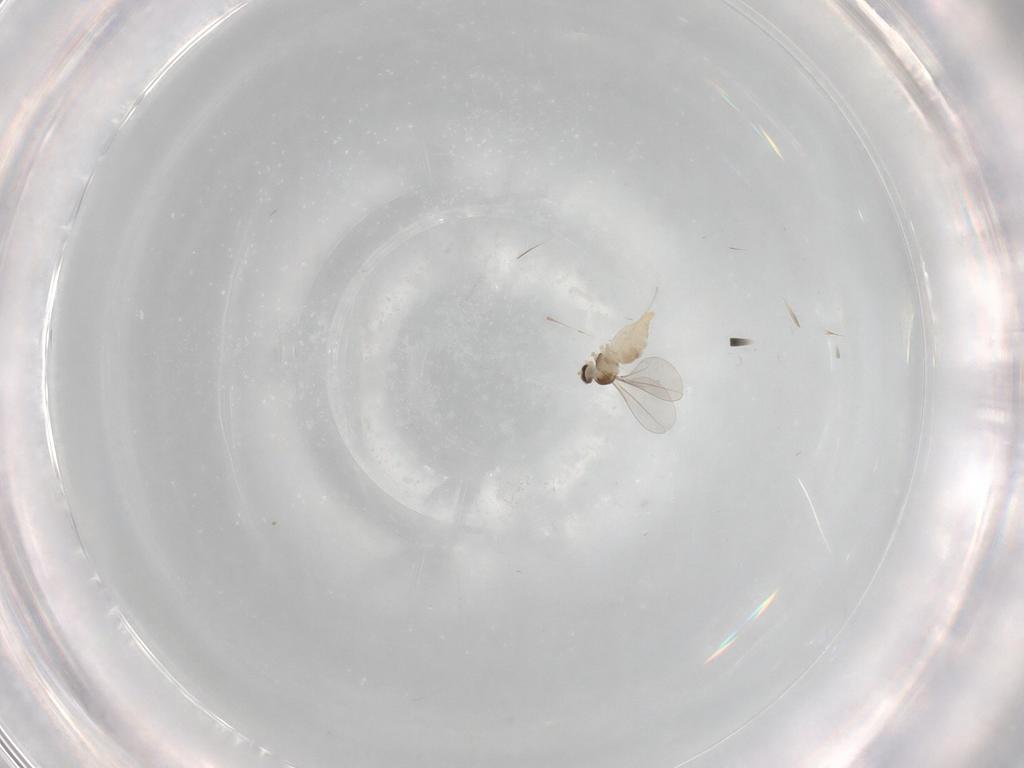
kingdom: Animalia
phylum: Arthropoda
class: Insecta
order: Diptera
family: Cecidomyiidae
